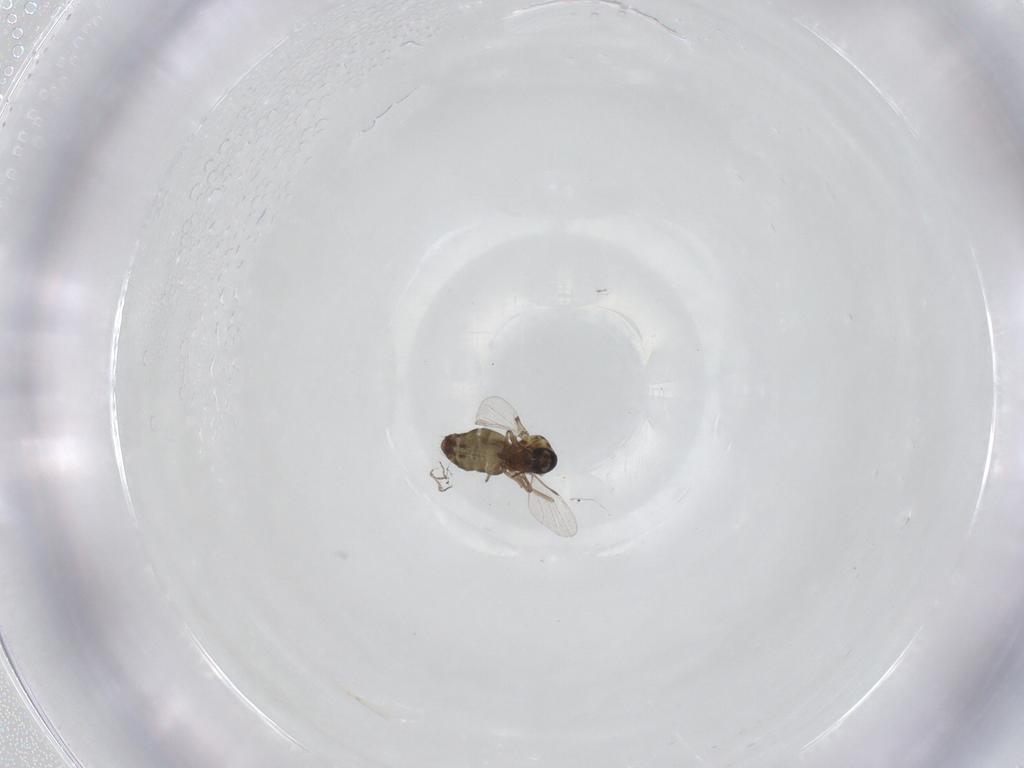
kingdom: Animalia
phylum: Arthropoda
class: Insecta
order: Diptera
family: Ceratopogonidae
